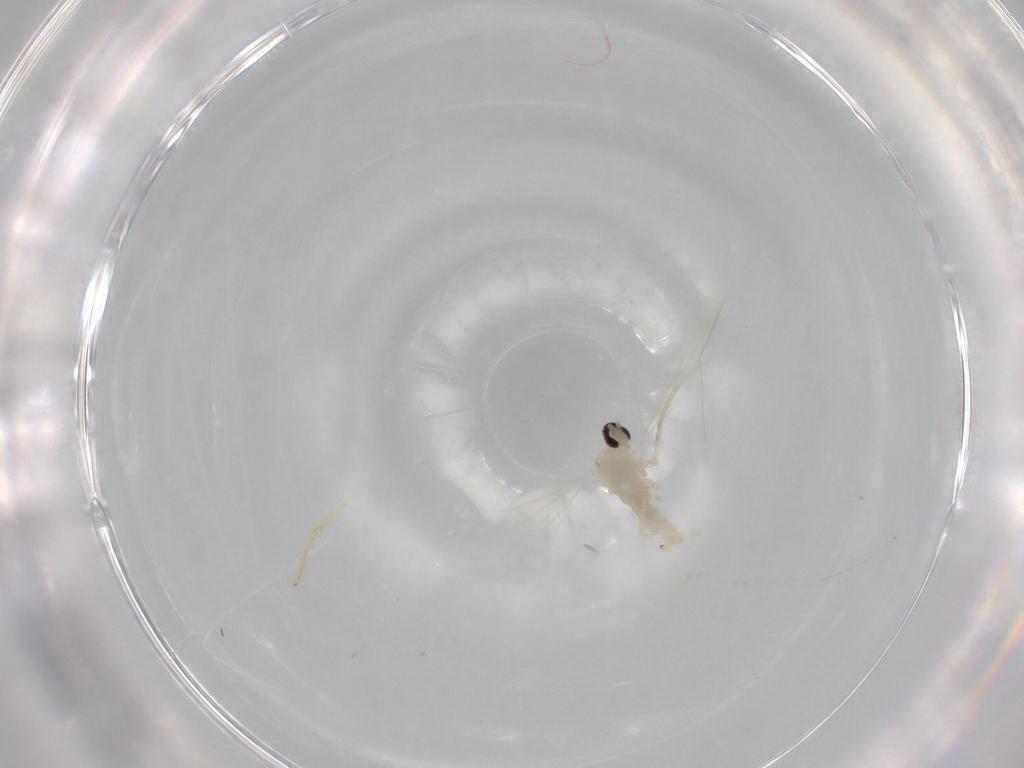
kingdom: Animalia
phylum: Arthropoda
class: Insecta
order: Diptera
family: Cecidomyiidae
